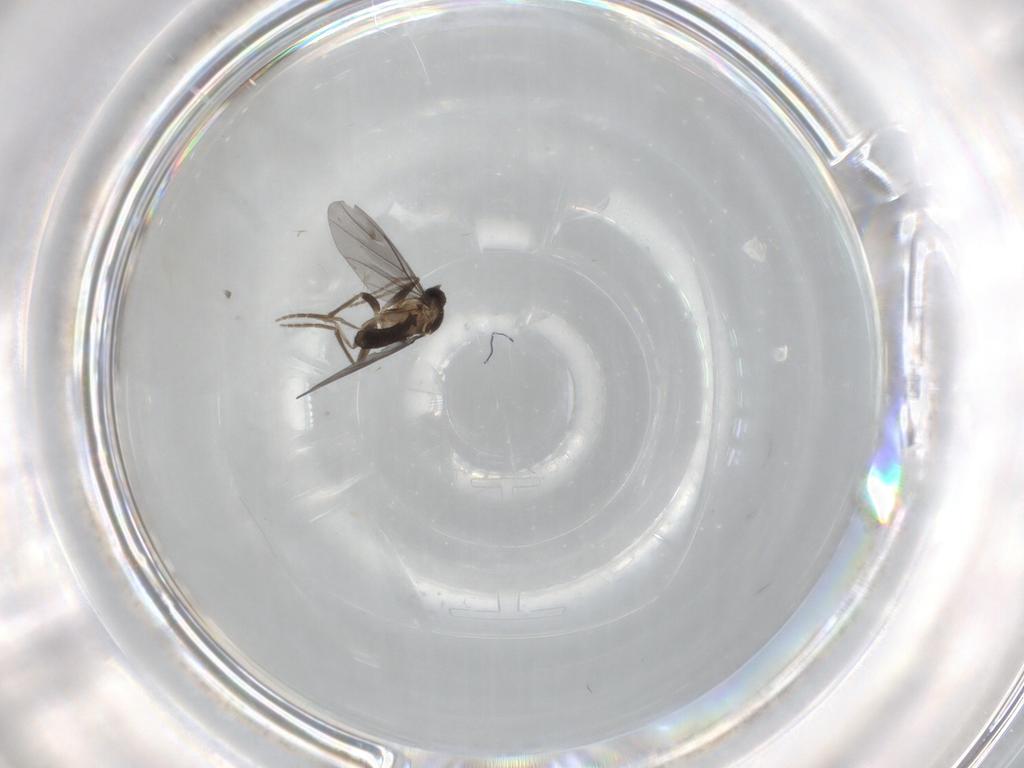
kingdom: Animalia
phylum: Arthropoda
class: Insecta
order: Diptera
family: Phoridae
